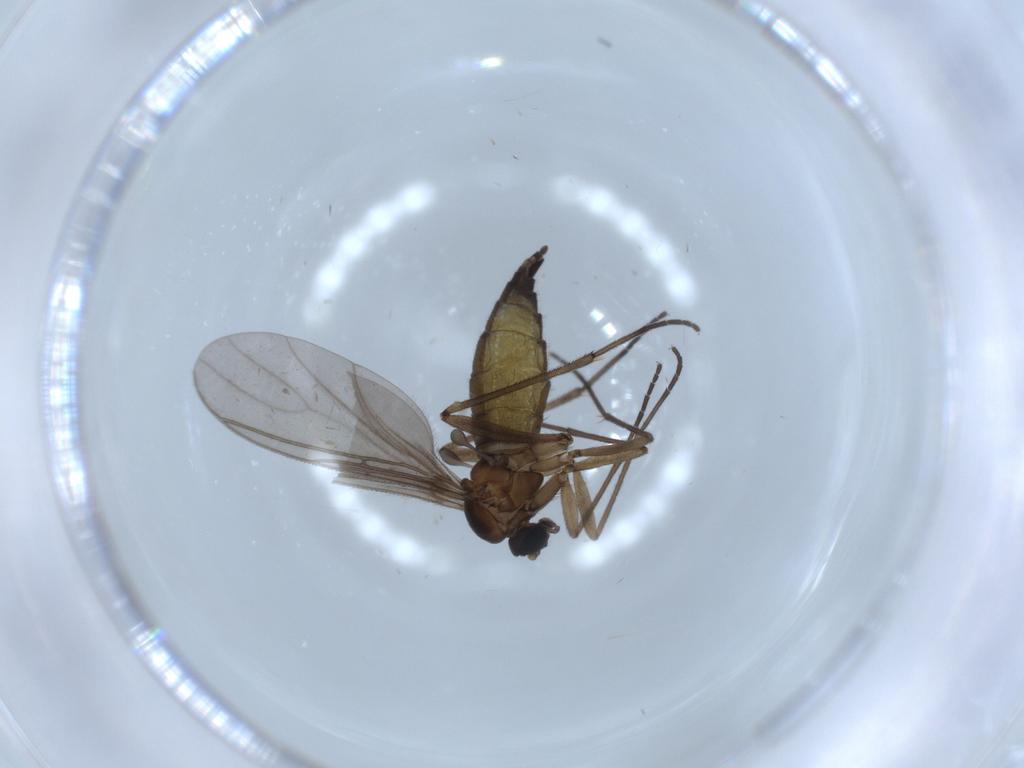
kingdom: Animalia
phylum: Arthropoda
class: Insecta
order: Diptera
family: Sciaridae
